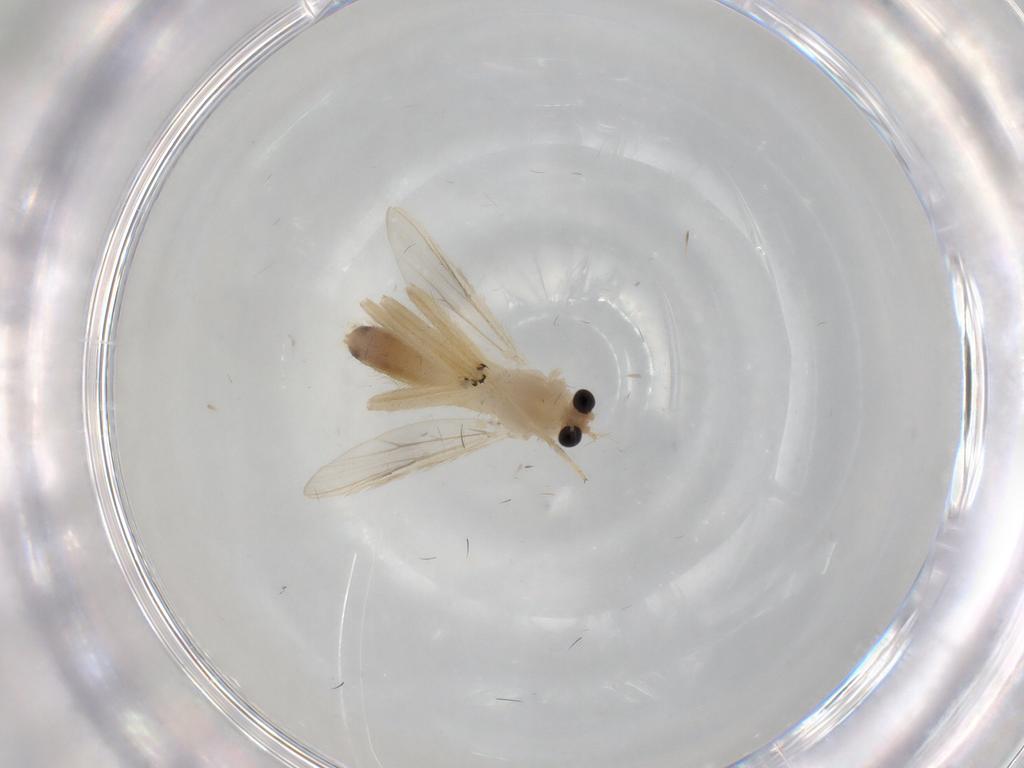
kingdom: Animalia
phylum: Arthropoda
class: Insecta
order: Diptera
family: Chironomidae
